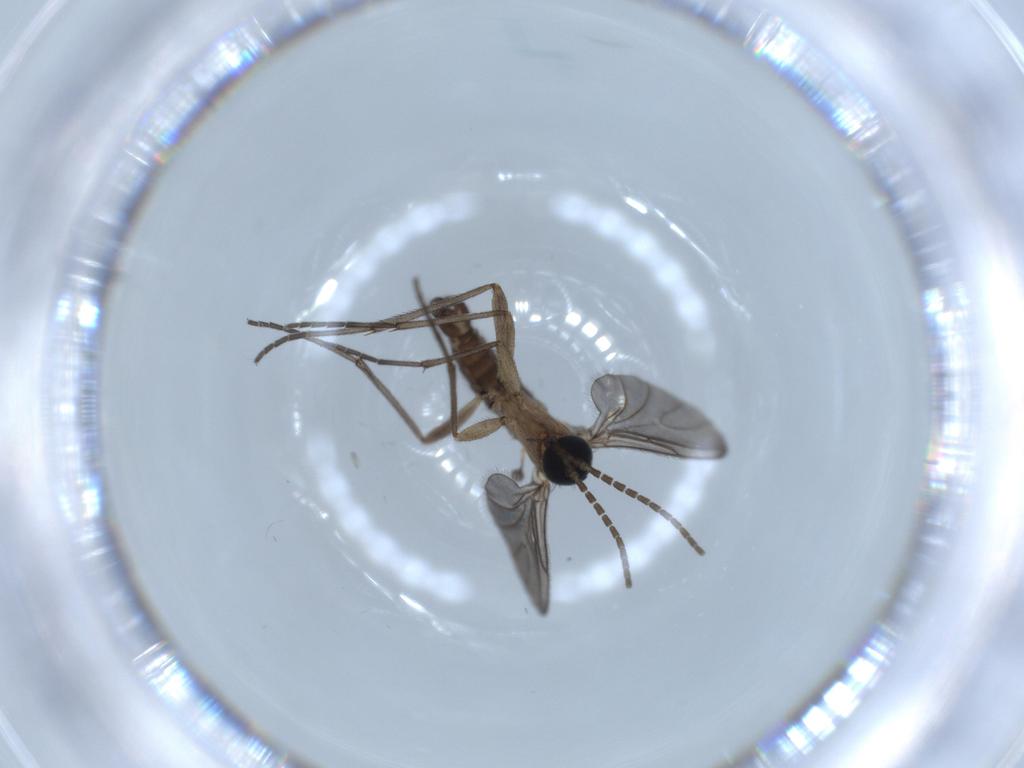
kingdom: Animalia
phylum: Arthropoda
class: Insecta
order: Diptera
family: Sciaridae
